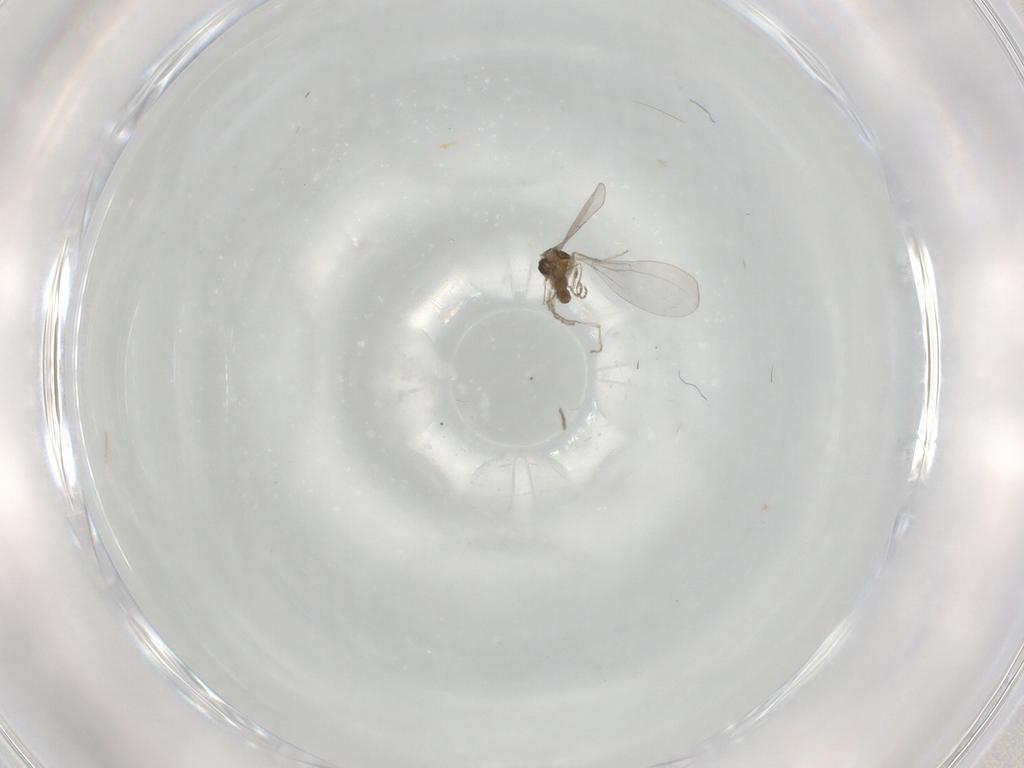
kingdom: Animalia
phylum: Arthropoda
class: Insecta
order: Diptera
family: Cecidomyiidae
